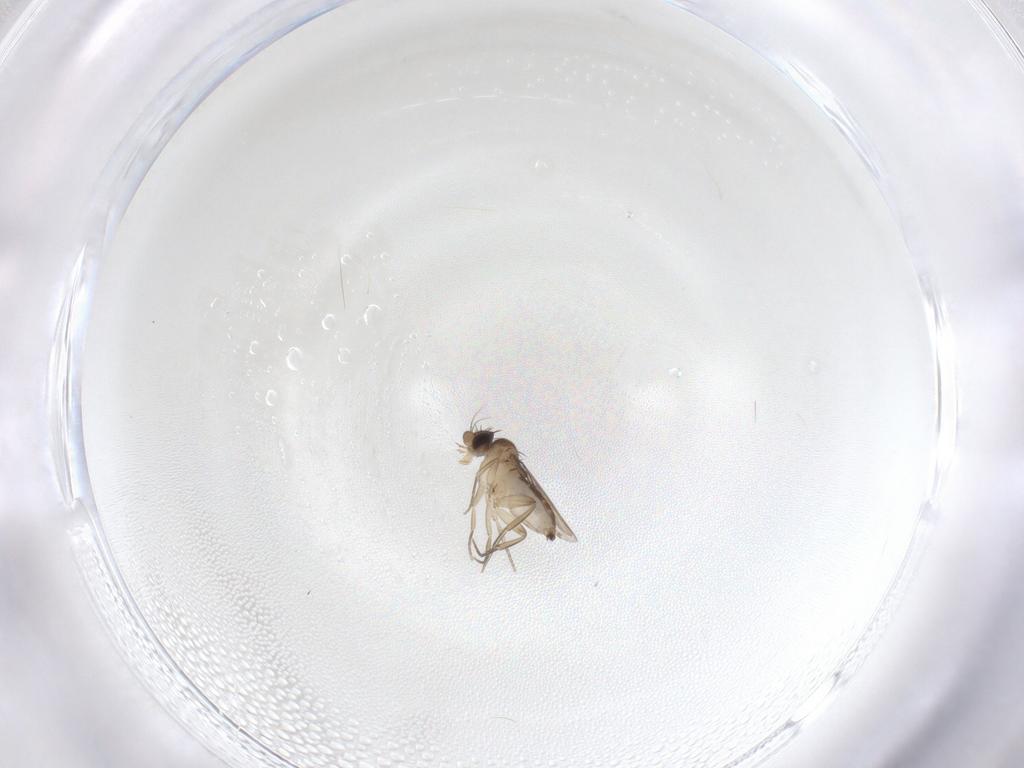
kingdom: Animalia
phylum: Arthropoda
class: Insecta
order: Diptera
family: Phoridae
